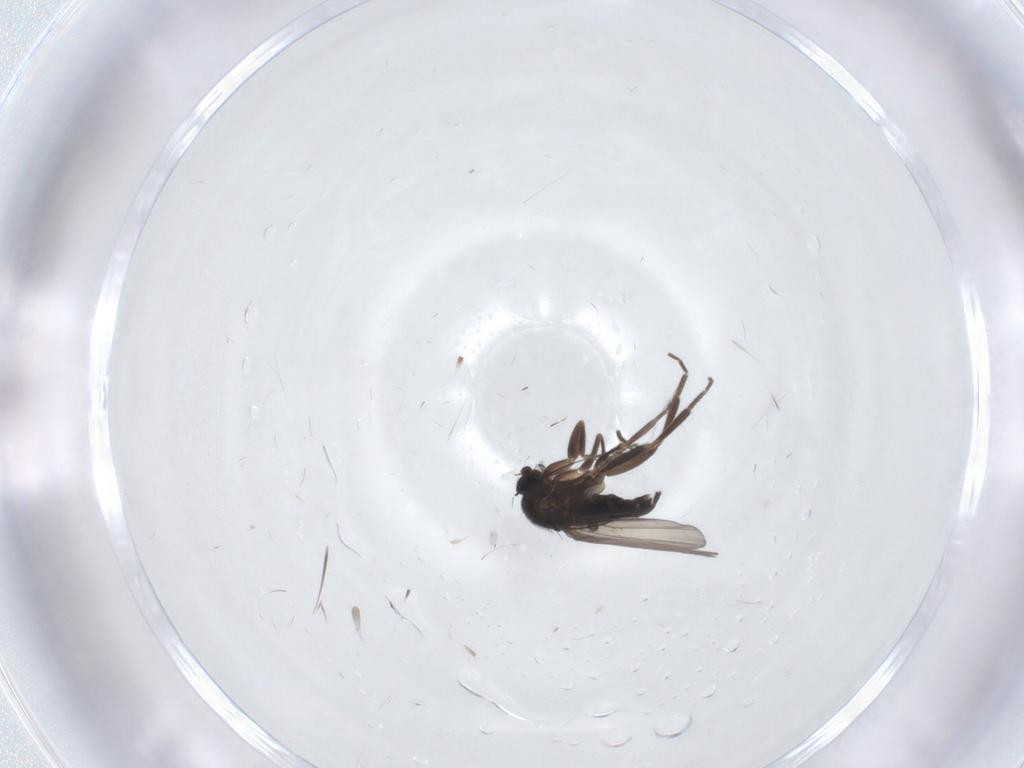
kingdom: Animalia
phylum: Arthropoda
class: Insecta
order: Diptera
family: Phoridae
